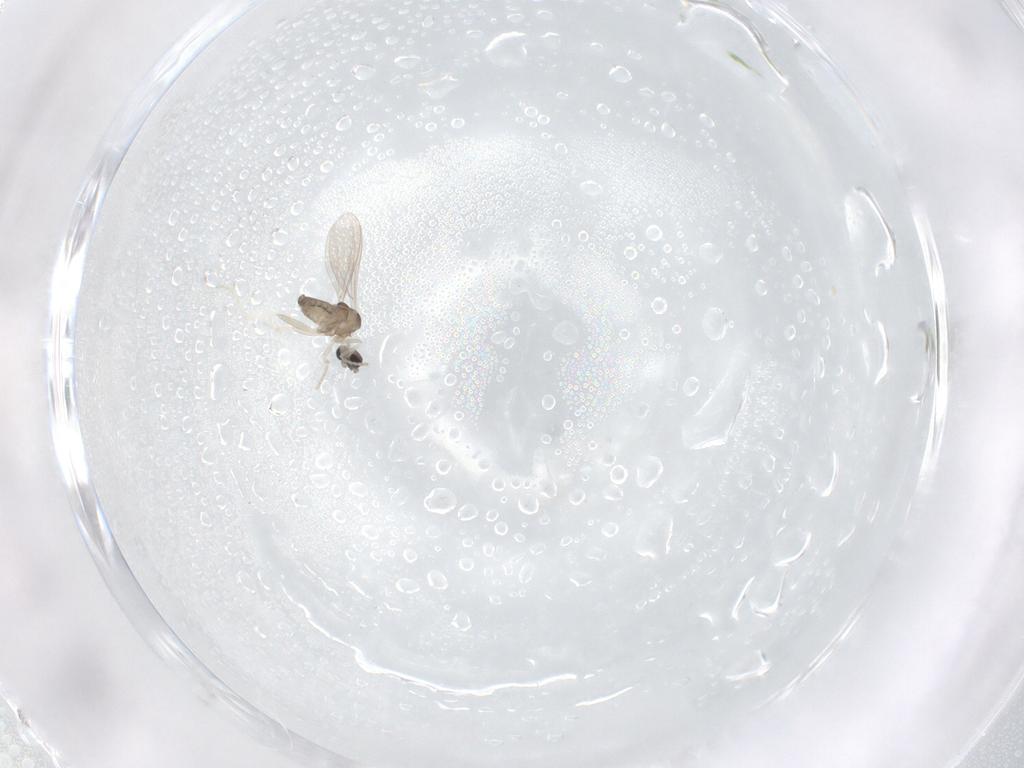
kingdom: Animalia
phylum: Arthropoda
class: Insecta
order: Diptera
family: Cecidomyiidae
